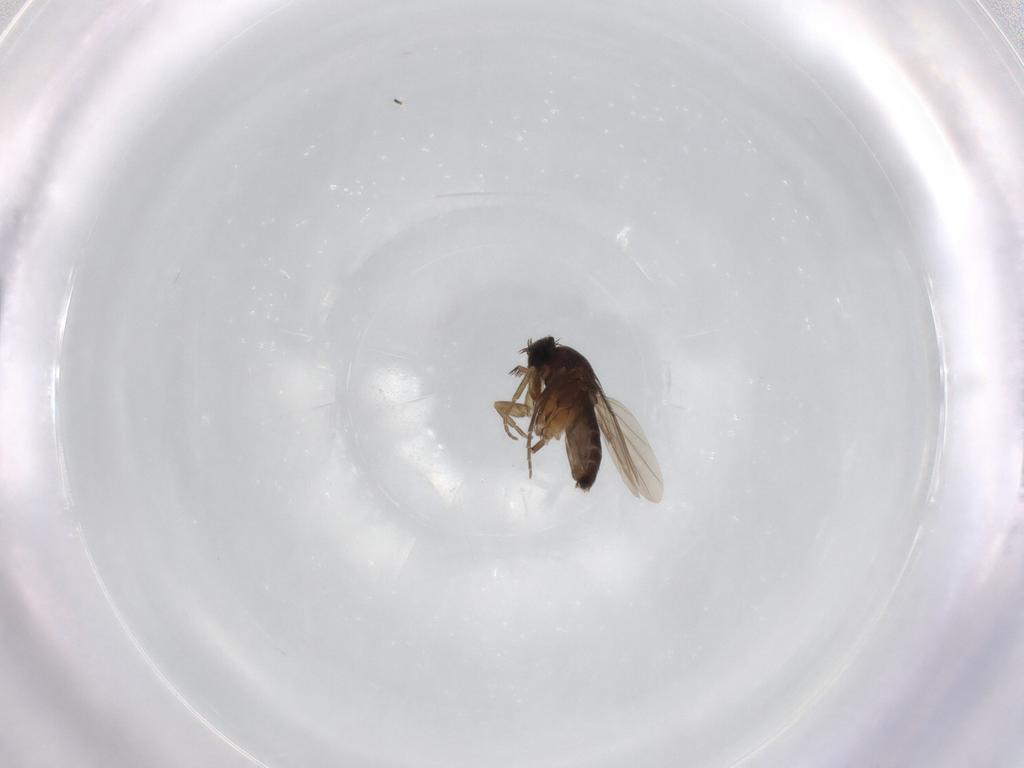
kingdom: Animalia
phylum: Arthropoda
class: Insecta
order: Diptera
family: Phoridae
